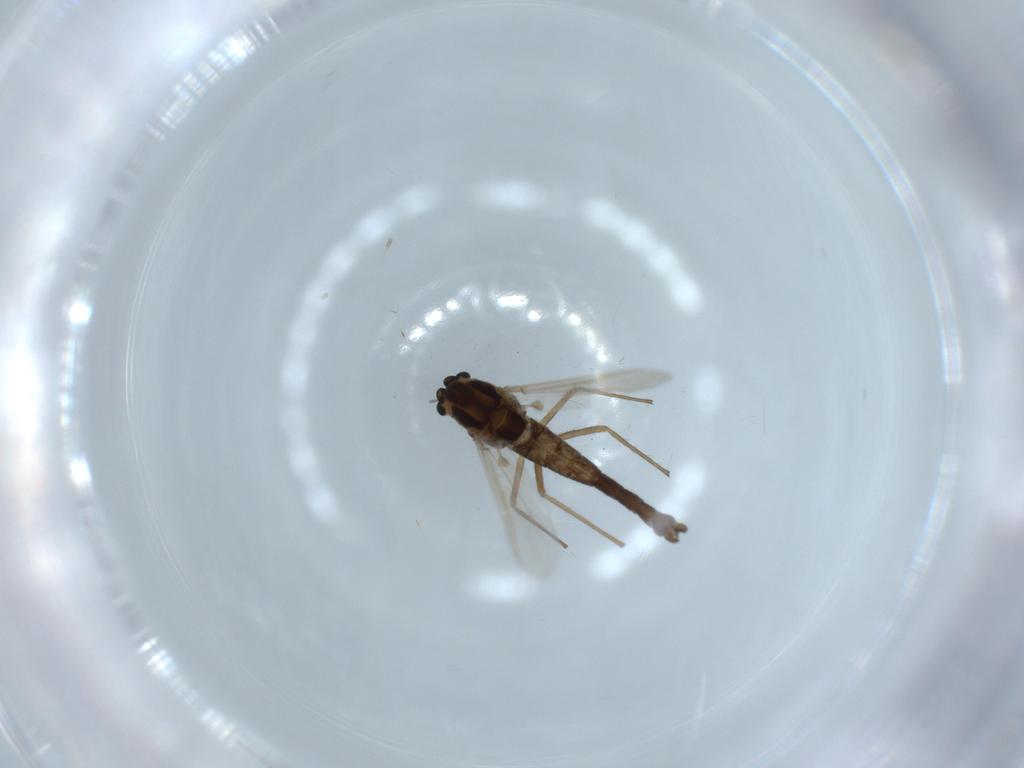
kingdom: Animalia
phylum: Arthropoda
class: Insecta
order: Diptera
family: Chironomidae
